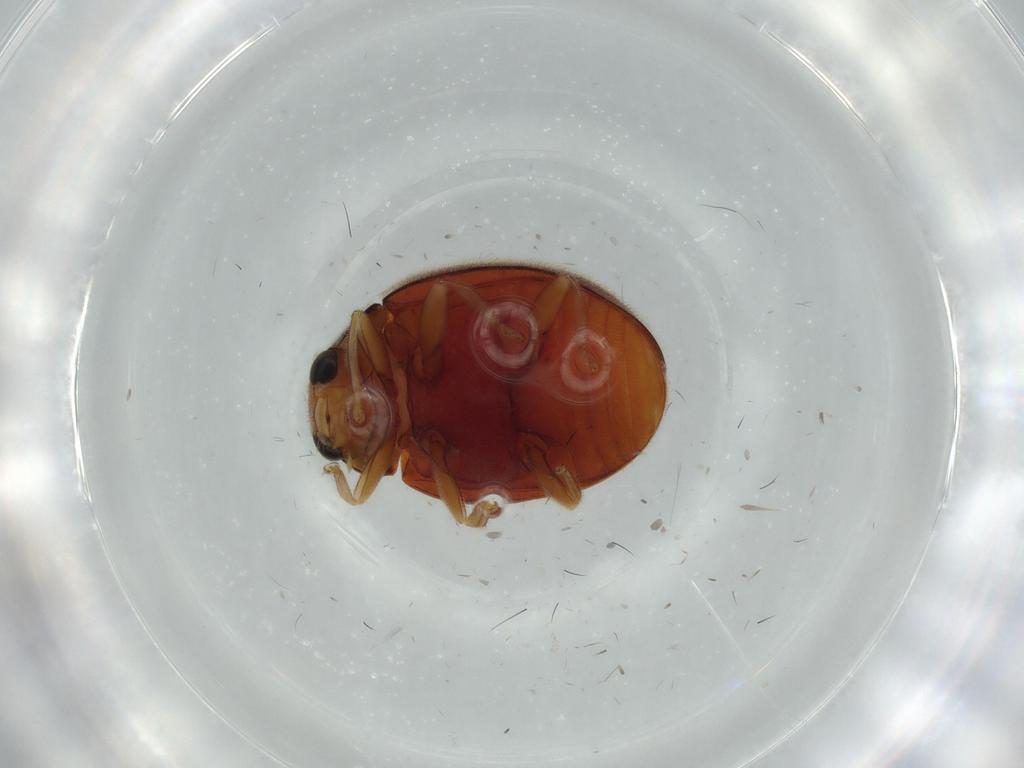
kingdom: Animalia
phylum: Arthropoda
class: Insecta
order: Coleoptera
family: Coccinellidae
